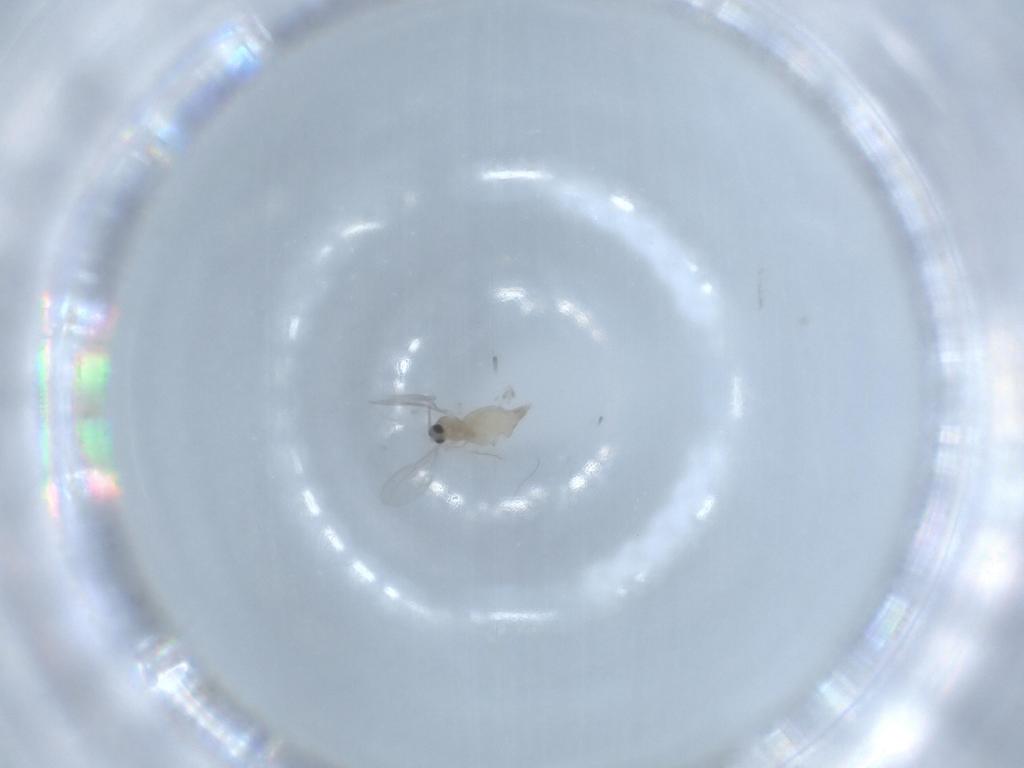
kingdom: Animalia
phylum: Arthropoda
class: Insecta
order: Diptera
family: Cecidomyiidae
